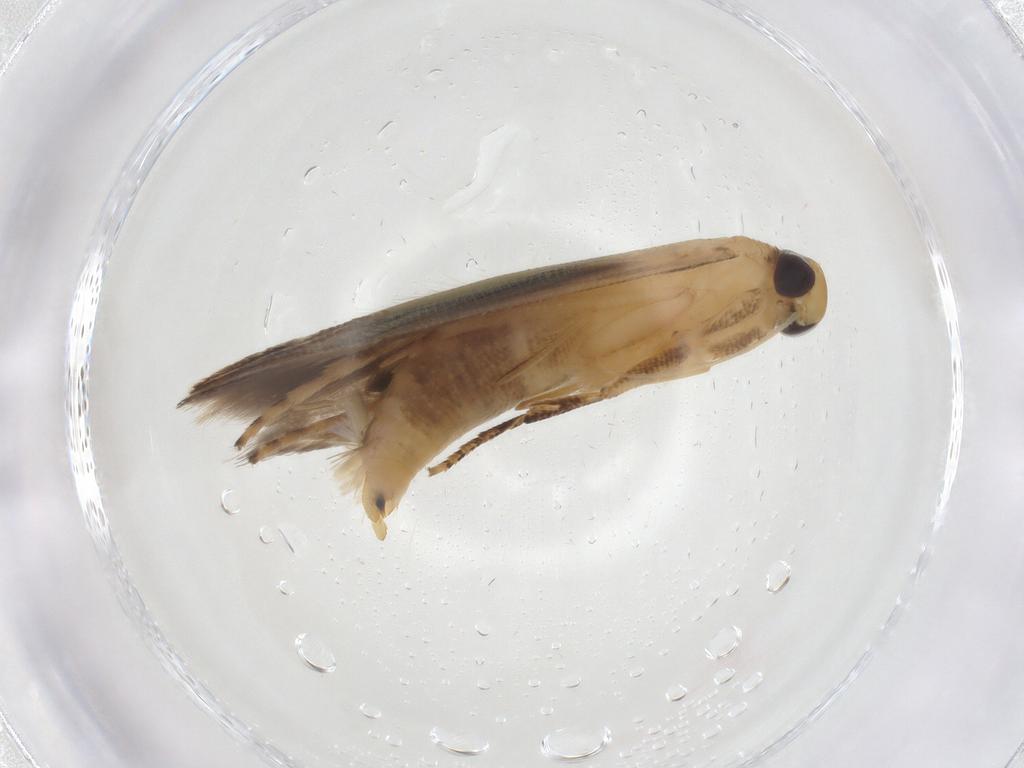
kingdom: Animalia
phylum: Arthropoda
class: Insecta
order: Lepidoptera
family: Momphidae
